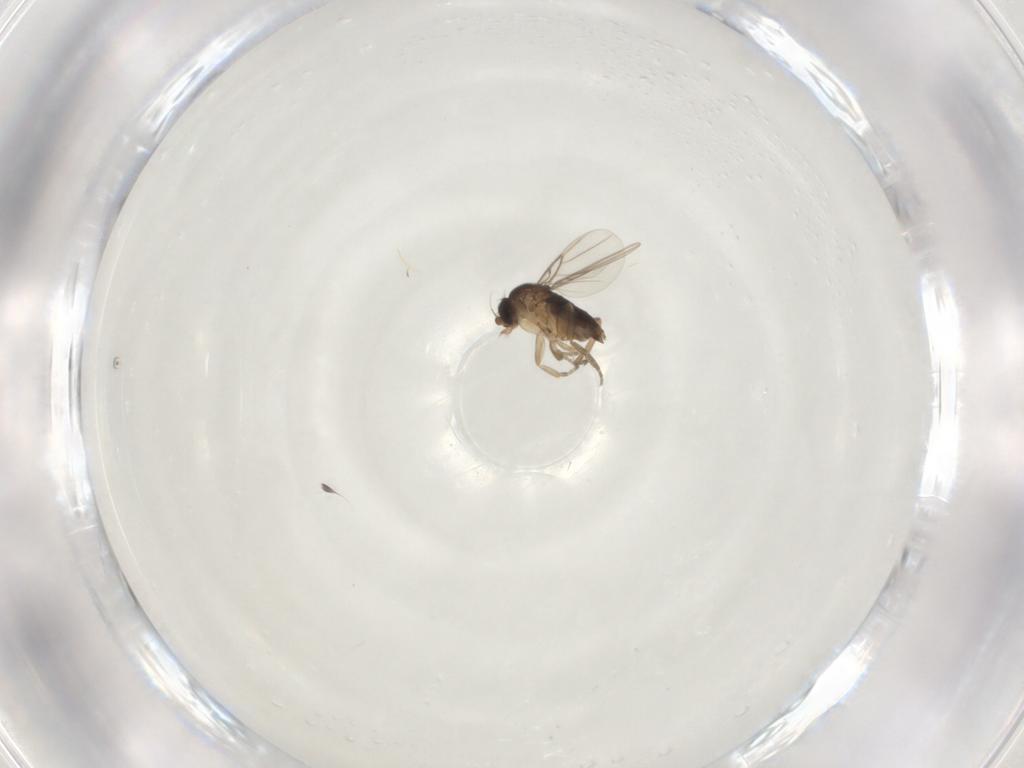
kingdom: Animalia
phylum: Arthropoda
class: Insecta
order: Diptera
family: Phoridae
